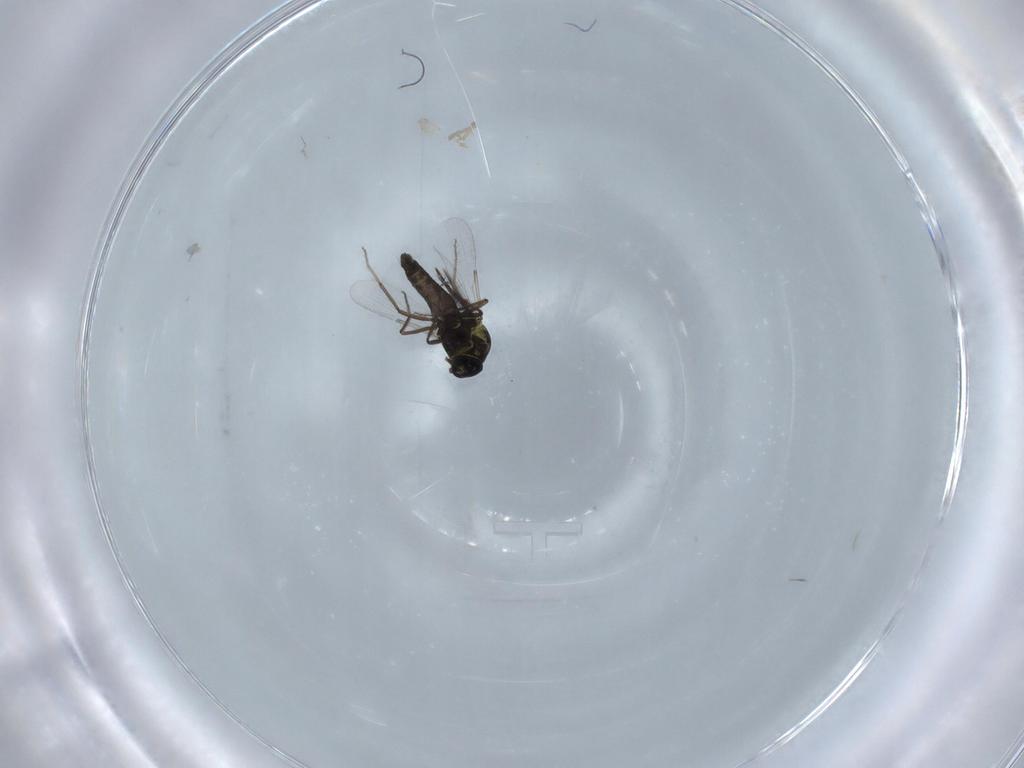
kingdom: Animalia
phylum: Arthropoda
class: Insecta
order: Diptera
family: Ceratopogonidae
